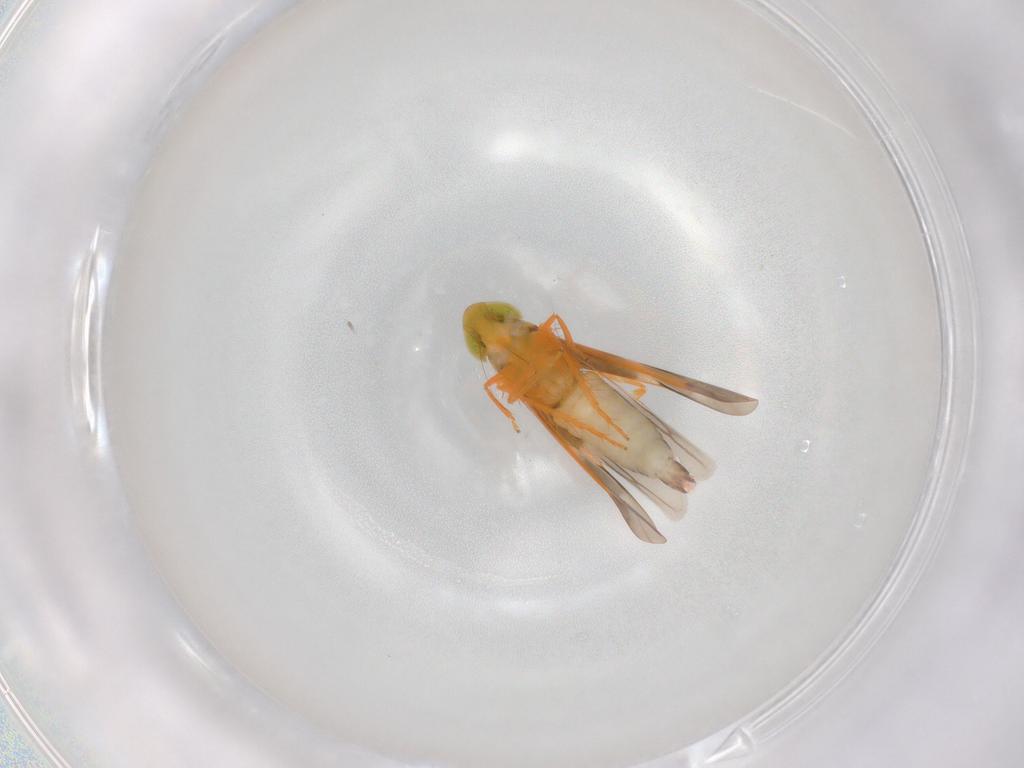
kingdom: Animalia
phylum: Arthropoda
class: Insecta
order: Hemiptera
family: Cicadellidae
